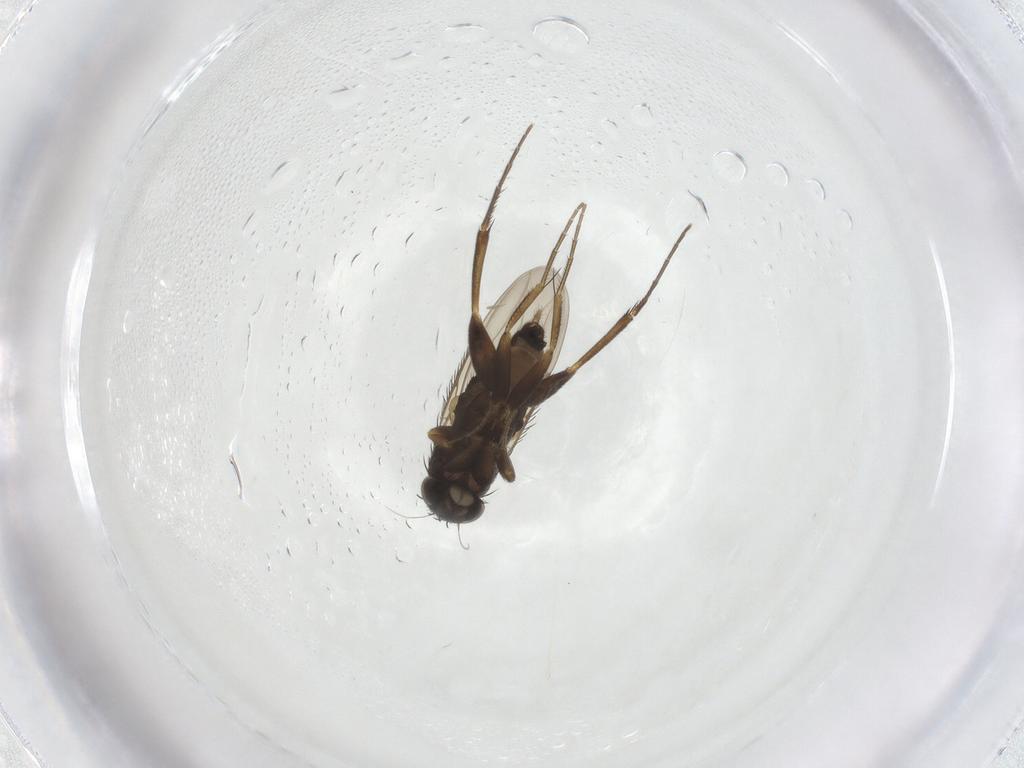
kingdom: Animalia
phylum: Arthropoda
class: Insecta
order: Diptera
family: Phoridae
